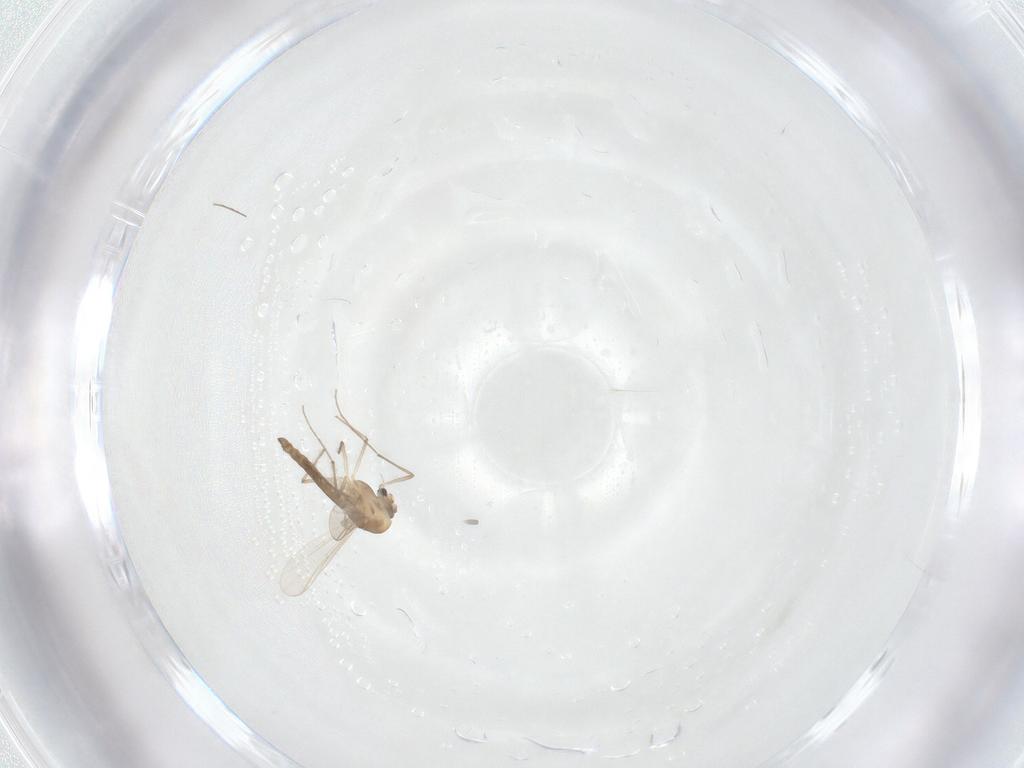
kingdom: Animalia
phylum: Arthropoda
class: Insecta
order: Diptera
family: Chironomidae
